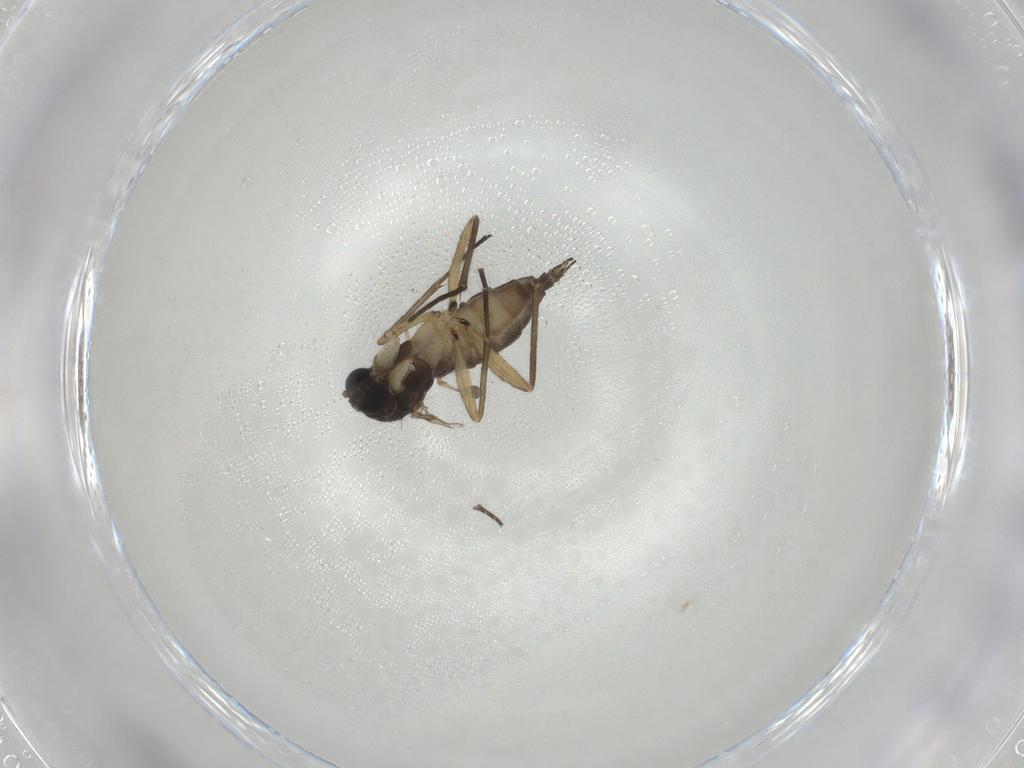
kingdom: Animalia
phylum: Arthropoda
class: Insecta
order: Diptera
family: Sciaridae
